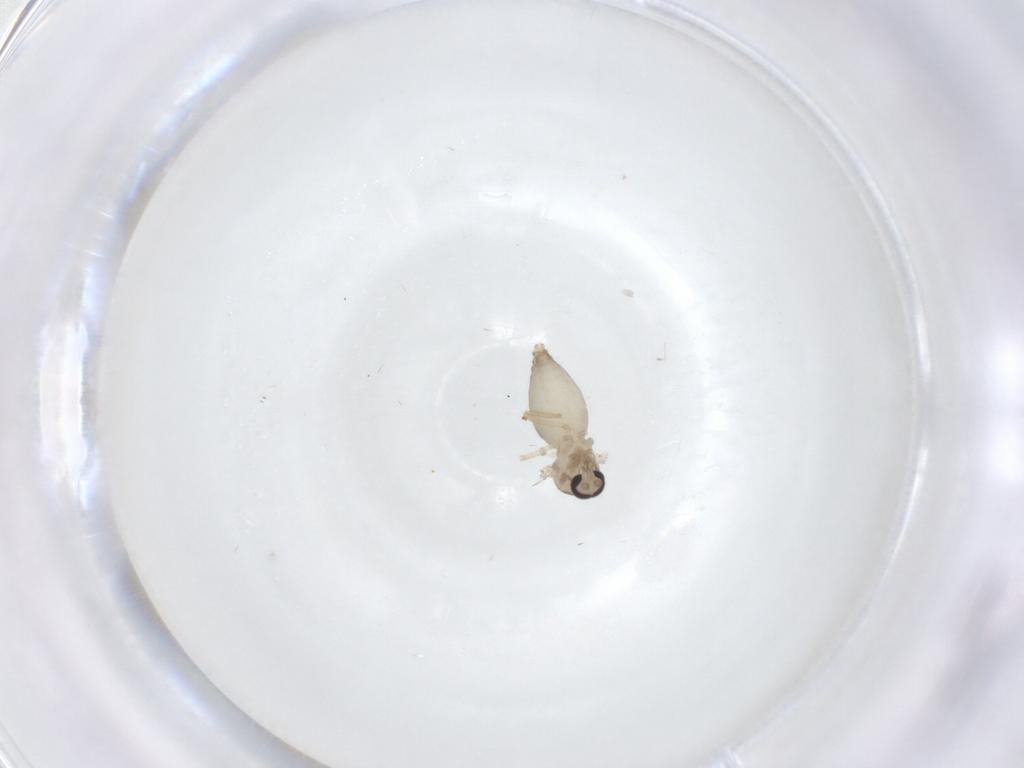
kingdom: Animalia
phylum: Arthropoda
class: Insecta
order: Diptera
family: Ceratopogonidae
